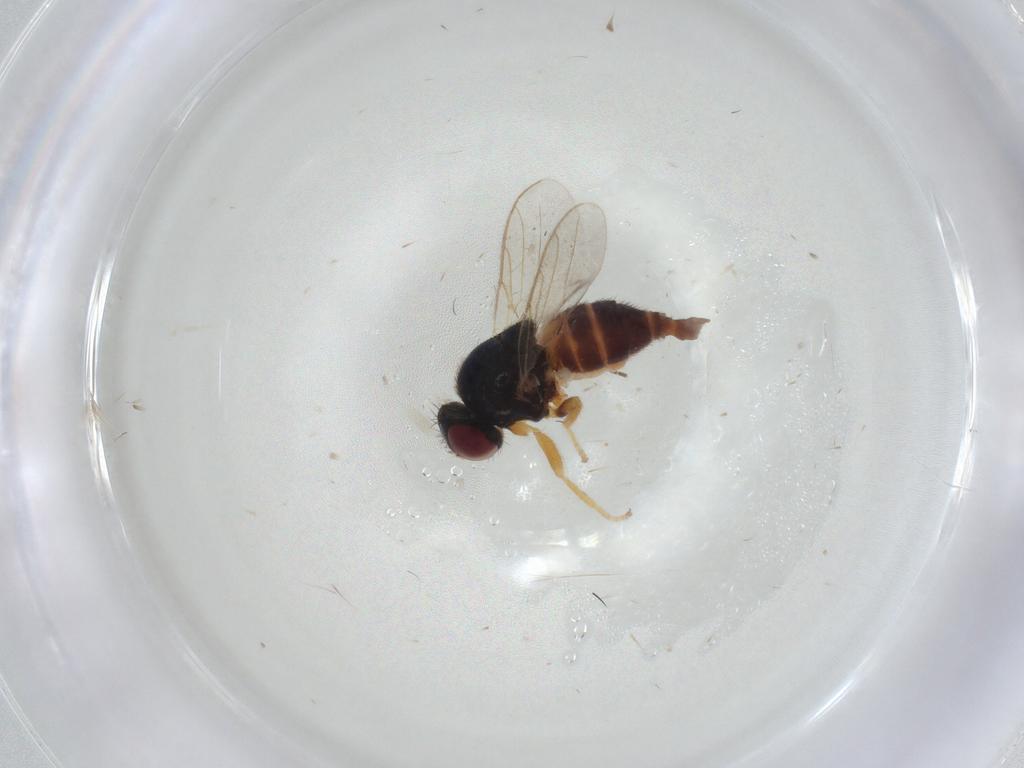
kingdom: Animalia
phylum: Arthropoda
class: Insecta
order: Diptera
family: Chloropidae
